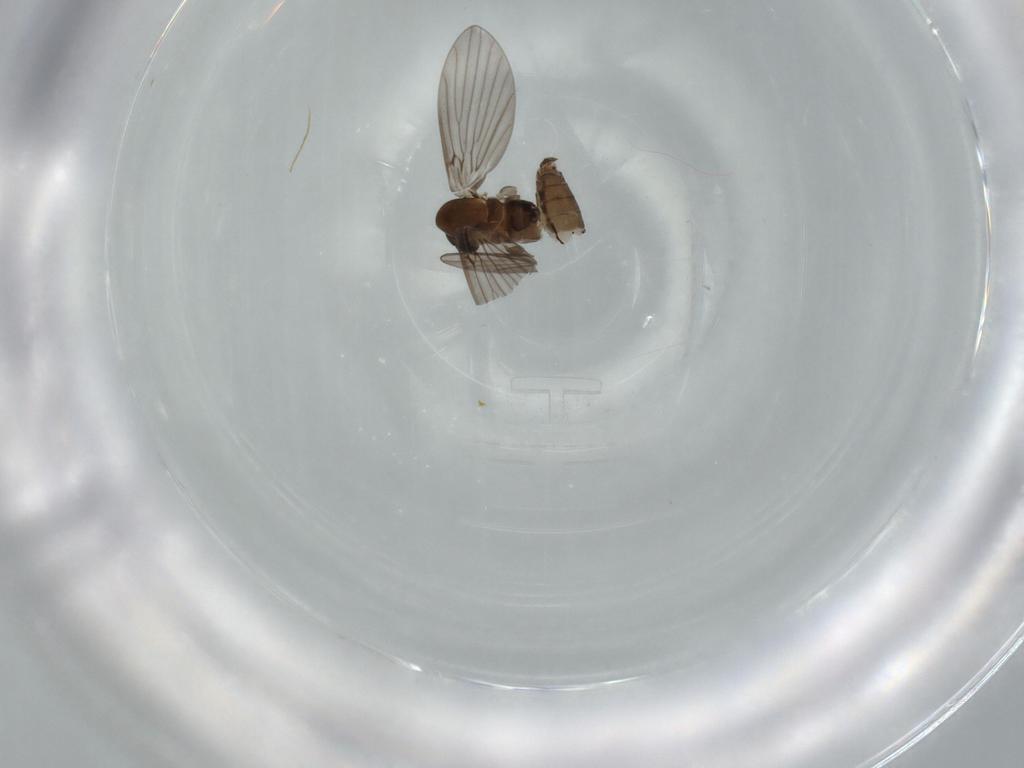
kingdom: Animalia
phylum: Arthropoda
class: Insecta
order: Diptera
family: Psychodidae
